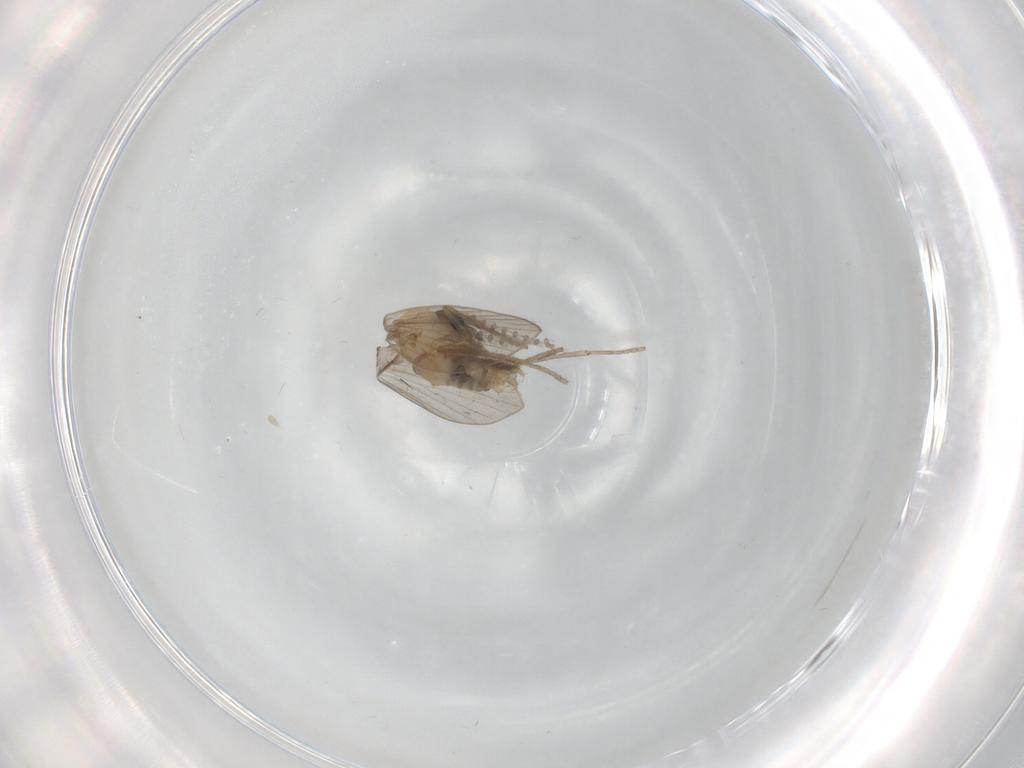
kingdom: Animalia
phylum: Arthropoda
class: Insecta
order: Diptera
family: Psychodidae
